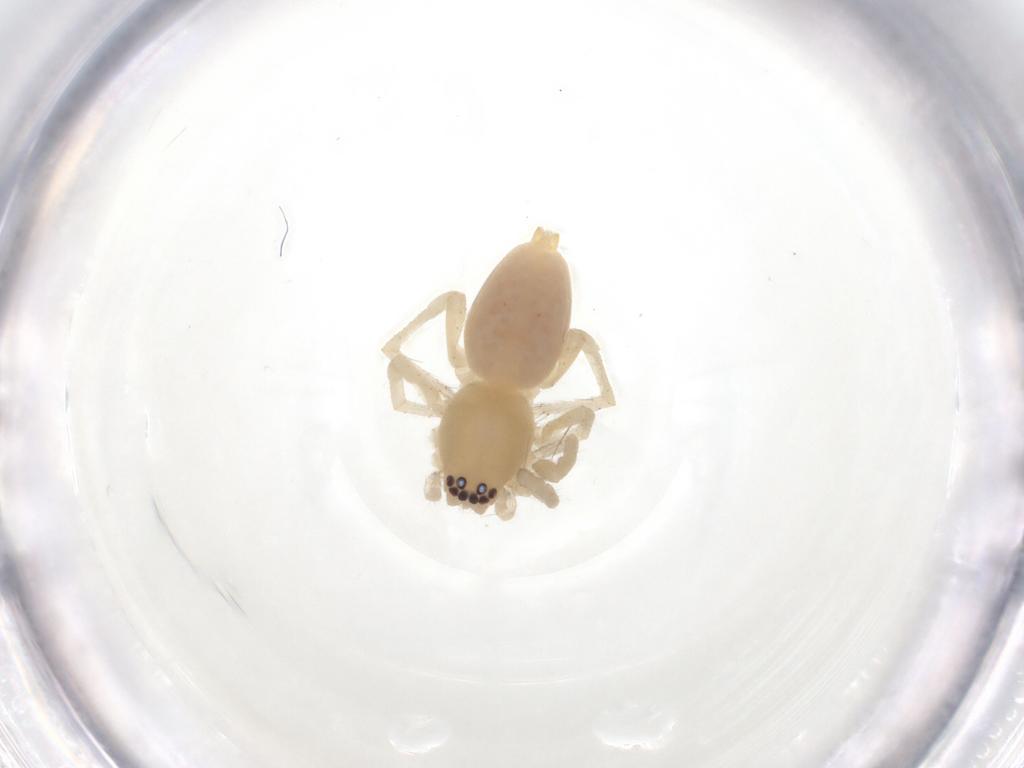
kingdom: Animalia
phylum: Arthropoda
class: Arachnida
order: Araneae
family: Clubionidae
